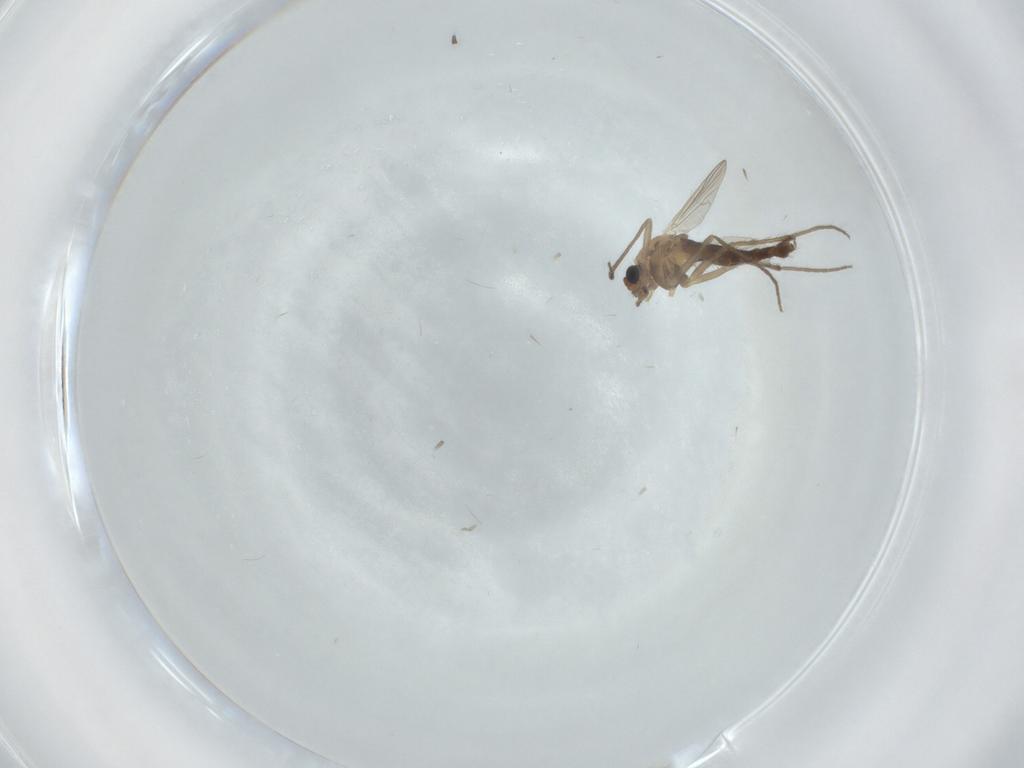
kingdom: Animalia
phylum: Arthropoda
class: Insecta
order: Diptera
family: Chironomidae
